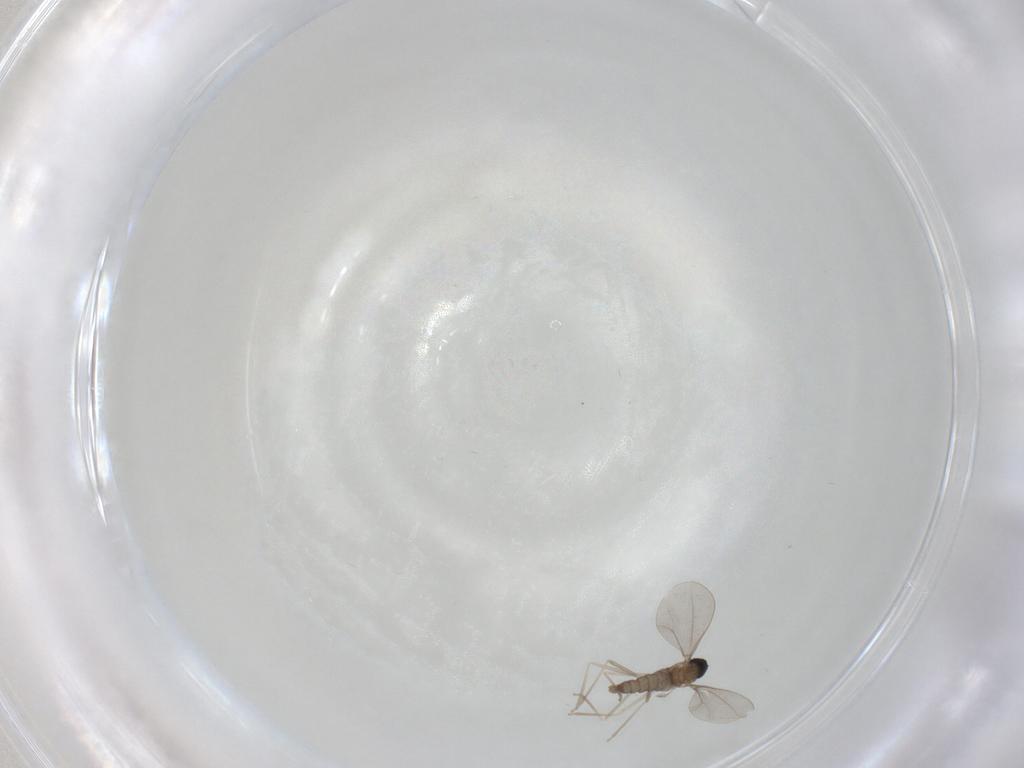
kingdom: Animalia
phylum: Arthropoda
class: Insecta
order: Diptera
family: Cecidomyiidae
